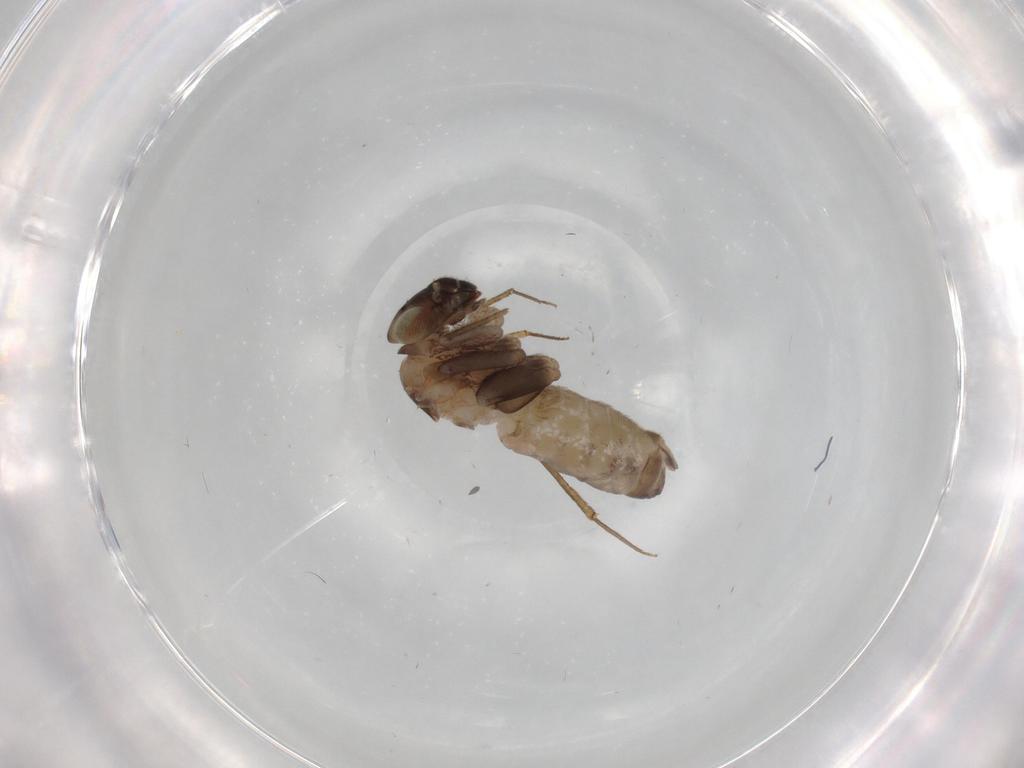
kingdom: Animalia
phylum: Arthropoda
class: Insecta
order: Psocodea
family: Lepidopsocidae
